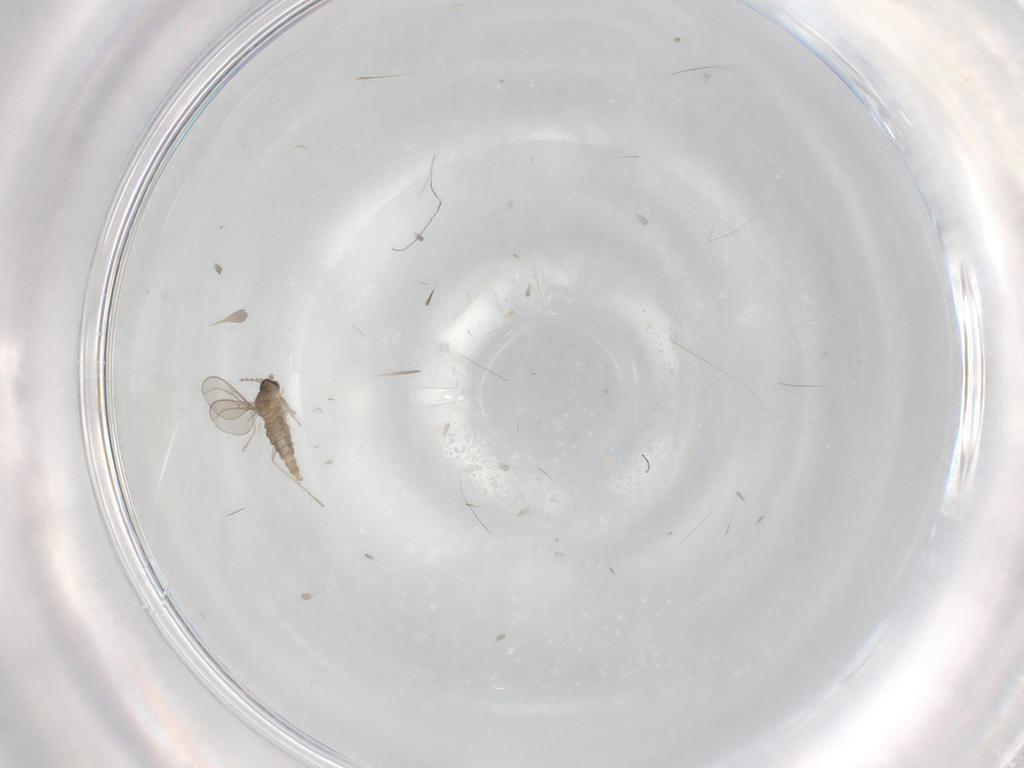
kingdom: Animalia
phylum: Arthropoda
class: Insecta
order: Diptera
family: Cecidomyiidae
